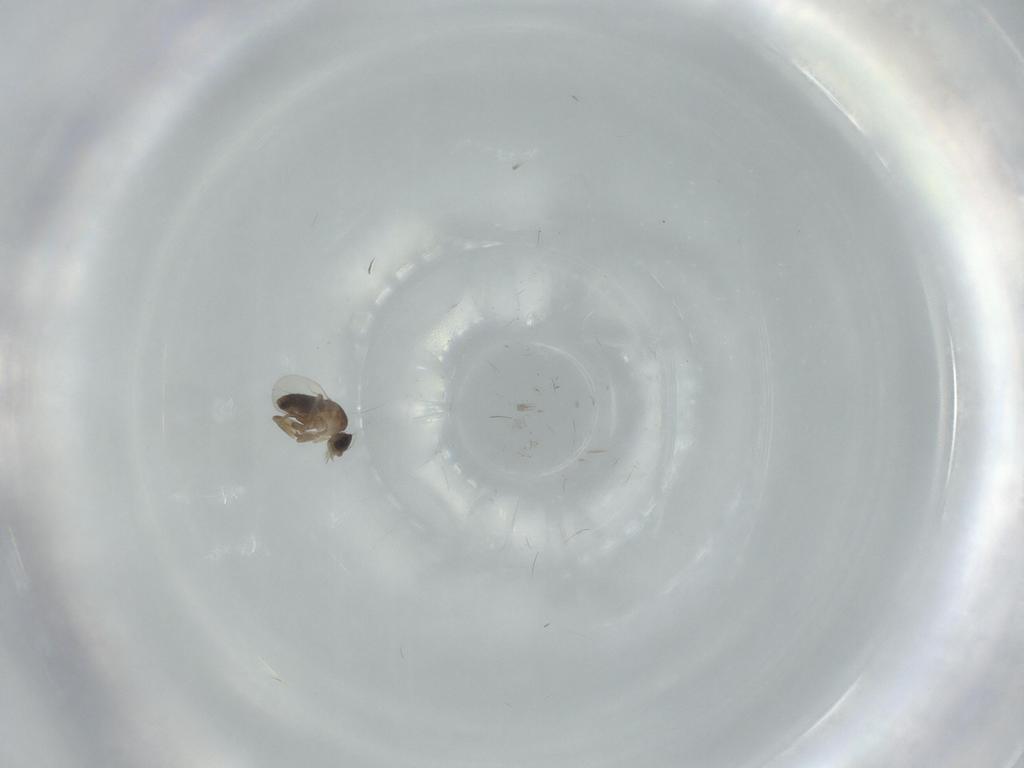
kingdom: Animalia
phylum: Arthropoda
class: Insecta
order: Diptera
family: Phoridae
